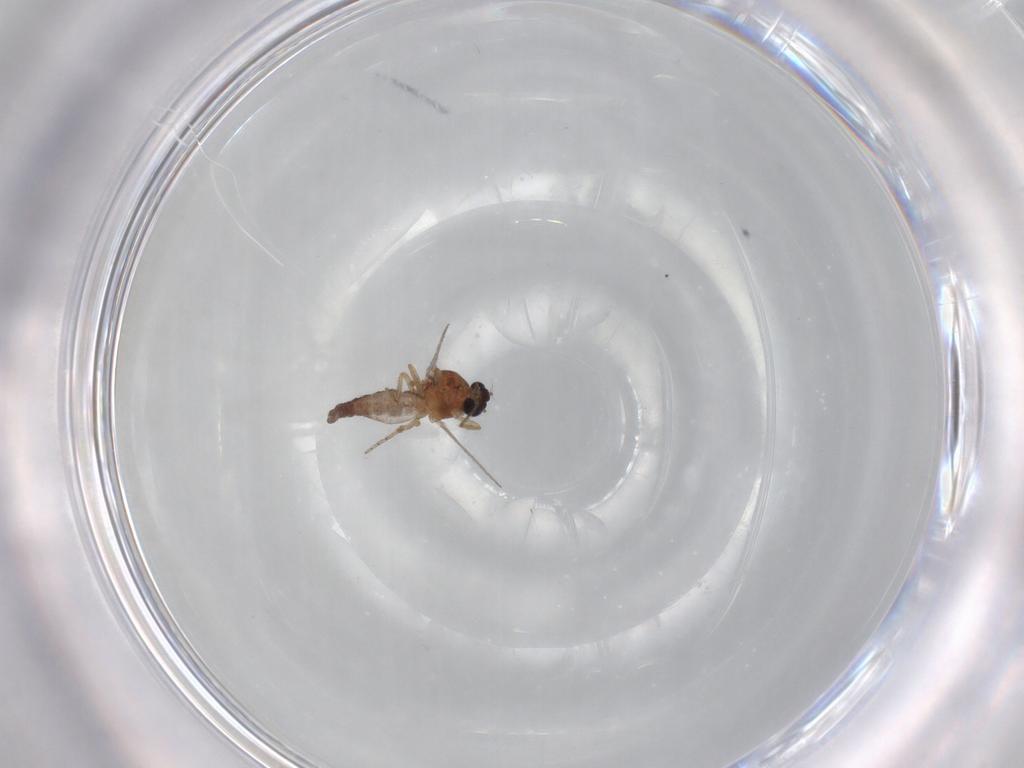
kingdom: Animalia
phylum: Arthropoda
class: Insecta
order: Diptera
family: Ceratopogonidae
